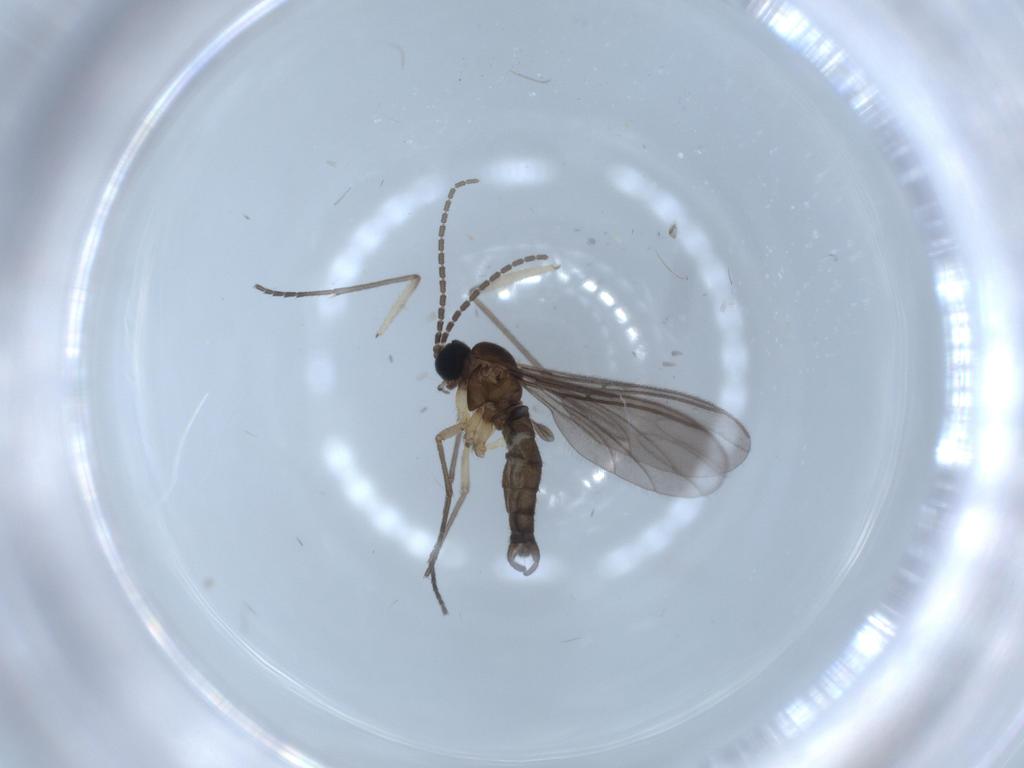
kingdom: Animalia
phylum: Arthropoda
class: Insecta
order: Diptera
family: Sciaridae
